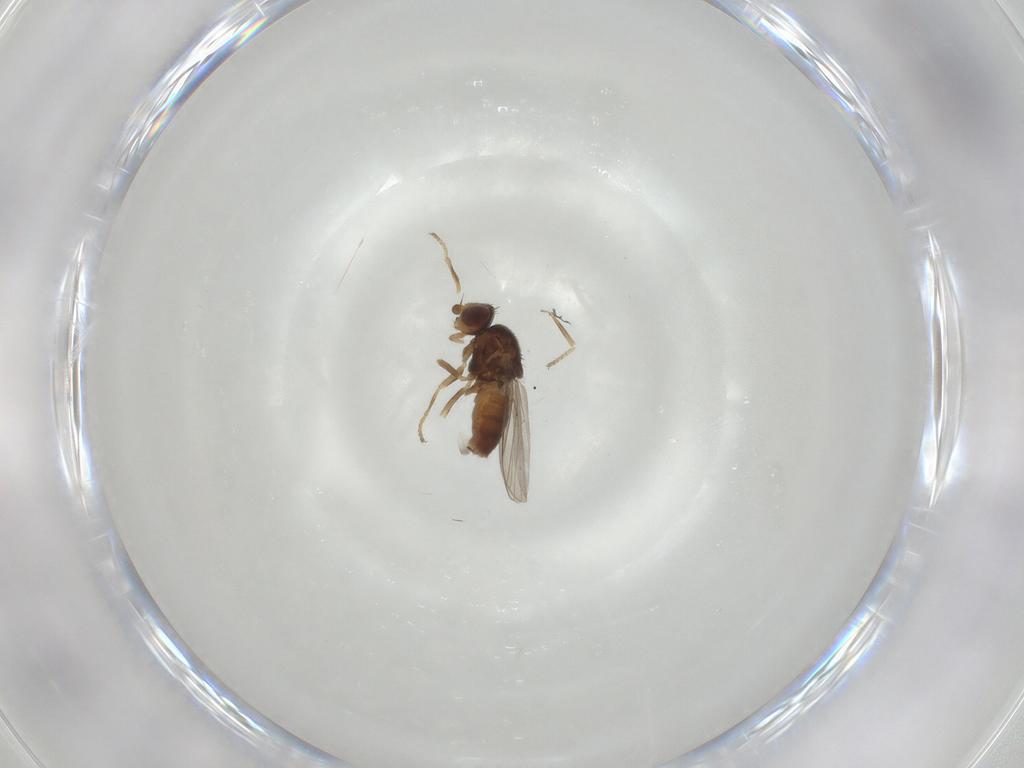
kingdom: Animalia
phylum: Arthropoda
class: Insecta
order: Diptera
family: Chloropidae
